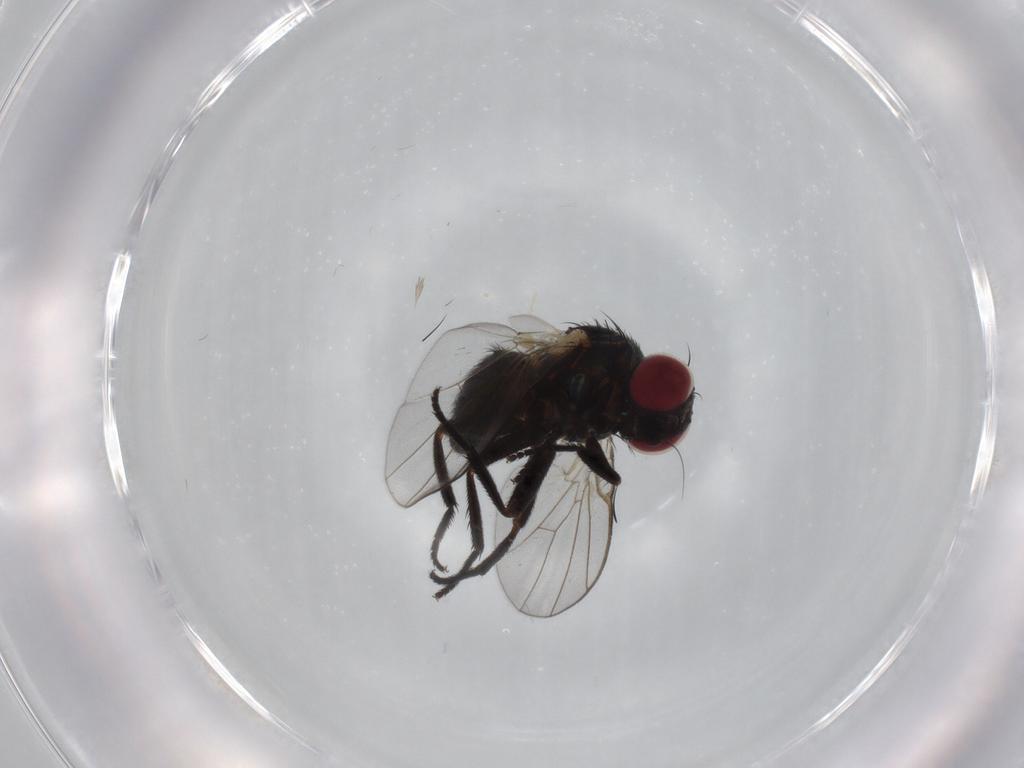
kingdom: Animalia
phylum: Arthropoda
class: Insecta
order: Diptera
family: Agromyzidae
